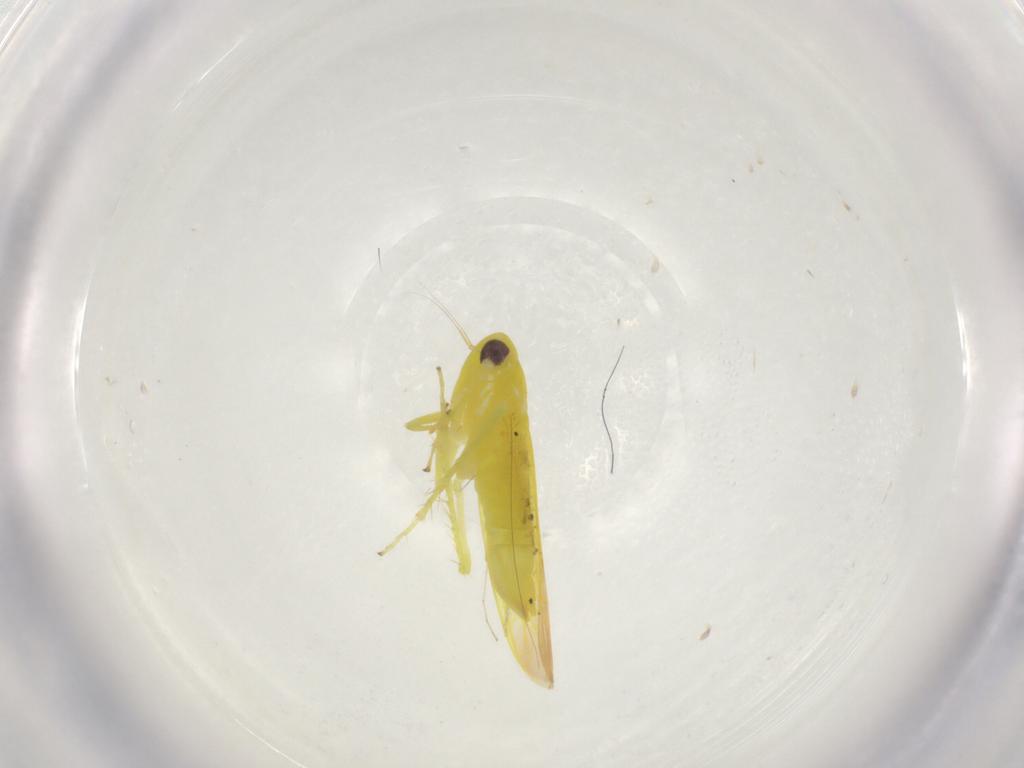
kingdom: Animalia
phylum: Arthropoda
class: Insecta
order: Hemiptera
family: Cicadellidae
